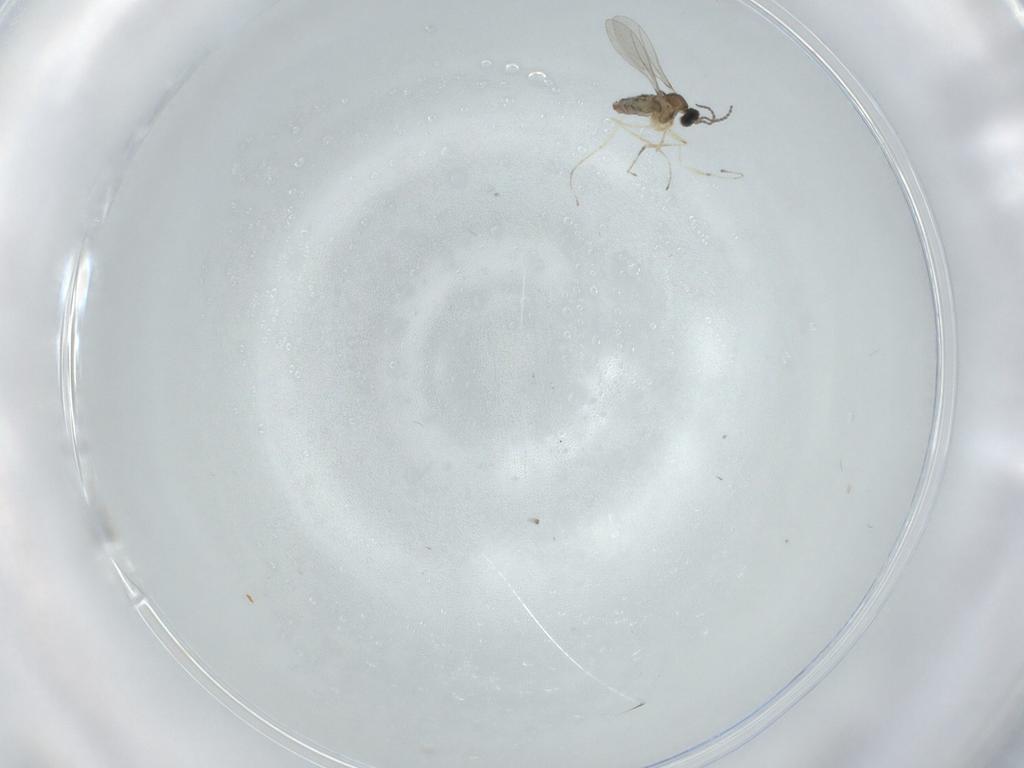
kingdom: Animalia
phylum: Arthropoda
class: Insecta
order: Diptera
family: Cecidomyiidae
